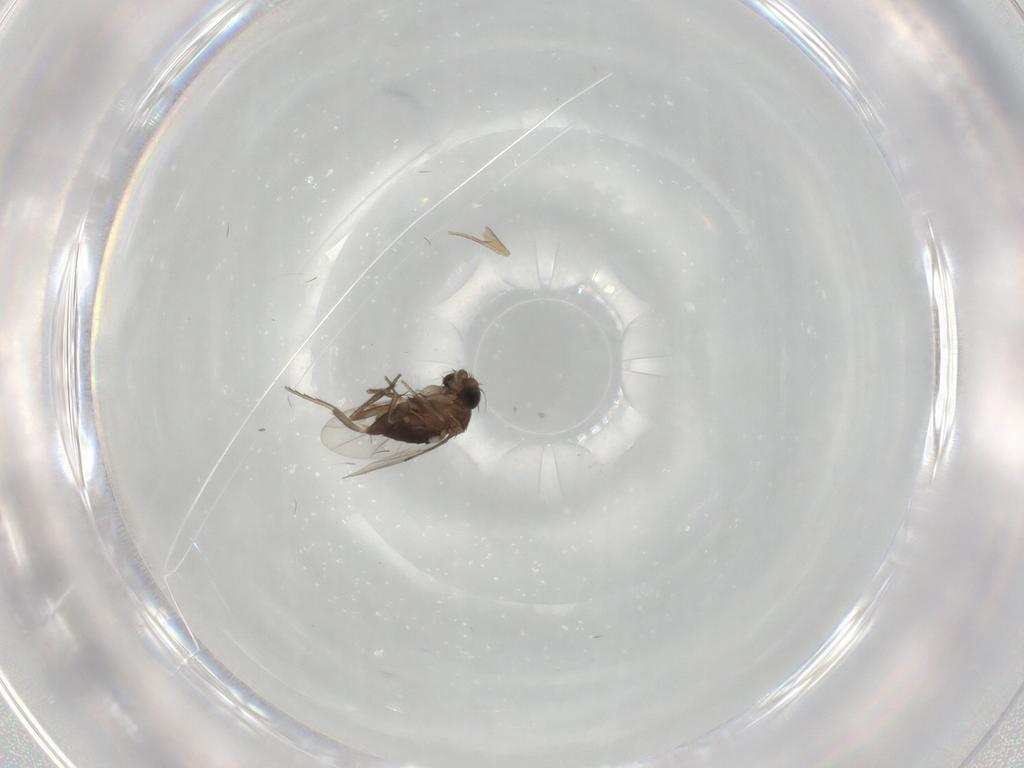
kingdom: Animalia
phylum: Arthropoda
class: Insecta
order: Diptera
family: Phoridae
